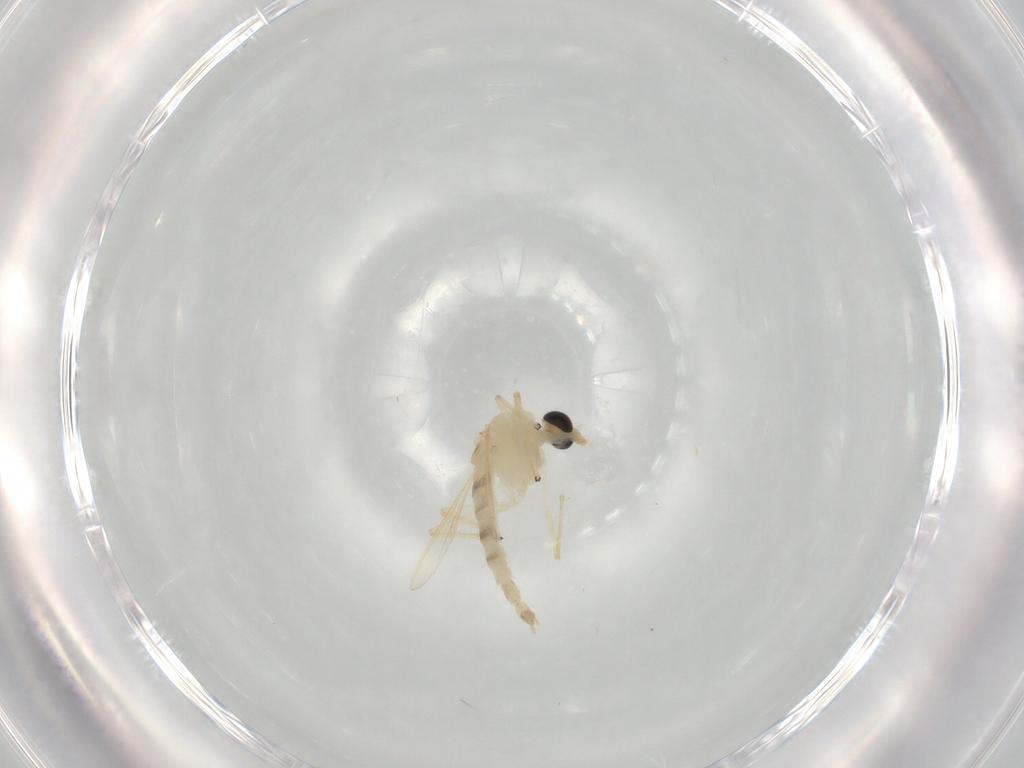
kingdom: Animalia
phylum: Arthropoda
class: Insecta
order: Diptera
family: Chironomidae
